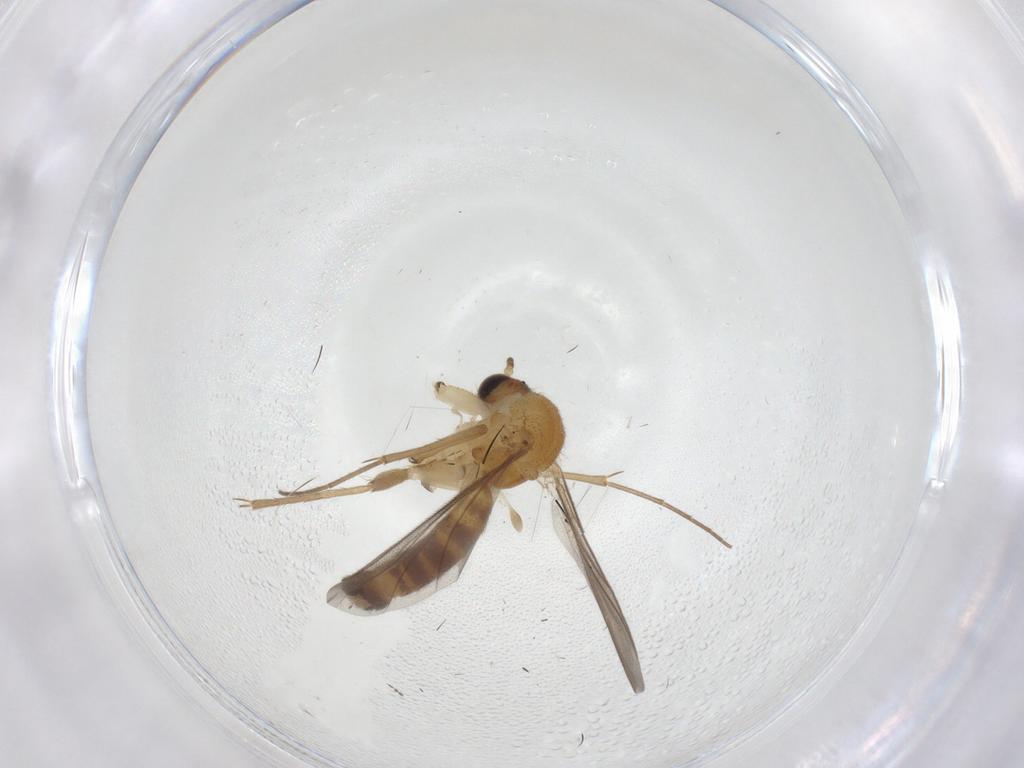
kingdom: Animalia
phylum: Arthropoda
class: Insecta
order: Diptera
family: Mycetophilidae
